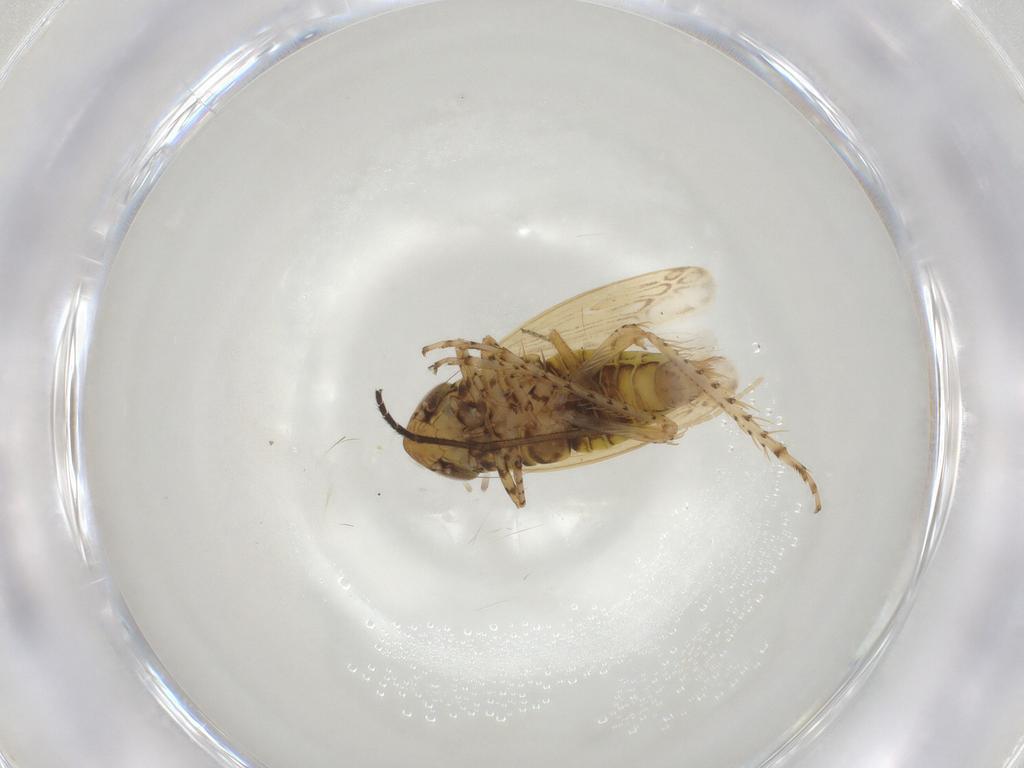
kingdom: Animalia
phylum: Arthropoda
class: Insecta
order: Hemiptera
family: Cicadellidae
